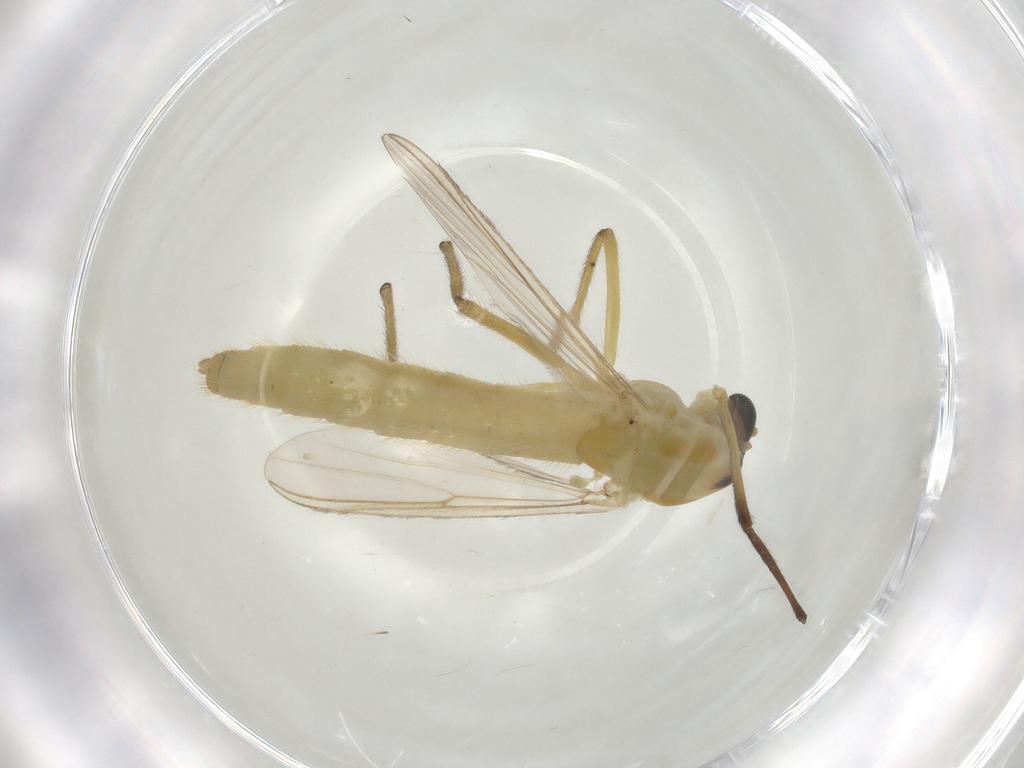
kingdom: Animalia
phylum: Arthropoda
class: Insecta
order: Diptera
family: Chironomidae
